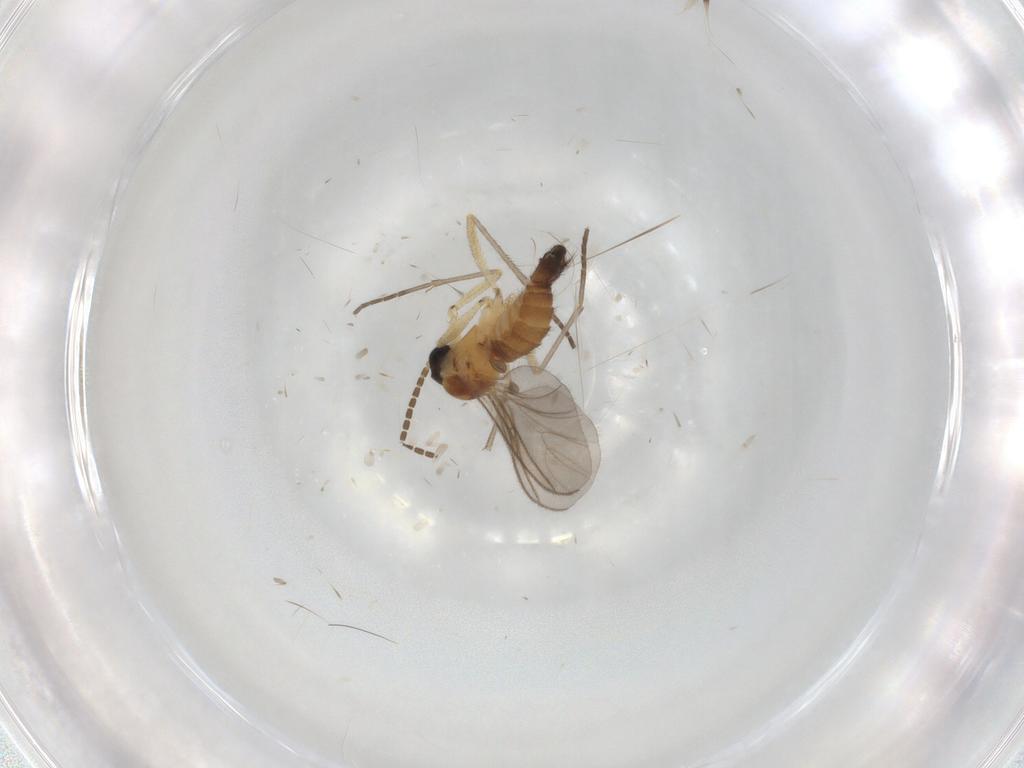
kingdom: Animalia
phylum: Arthropoda
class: Insecta
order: Diptera
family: Sciaridae
